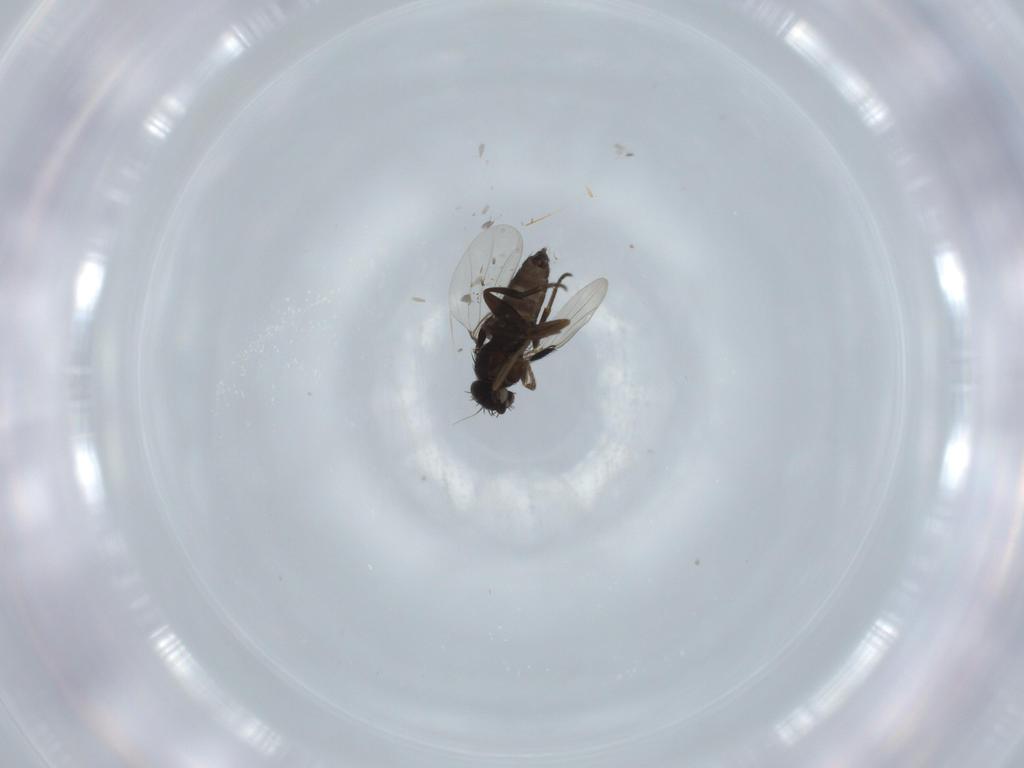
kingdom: Animalia
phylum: Arthropoda
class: Insecta
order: Diptera
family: Phoridae
